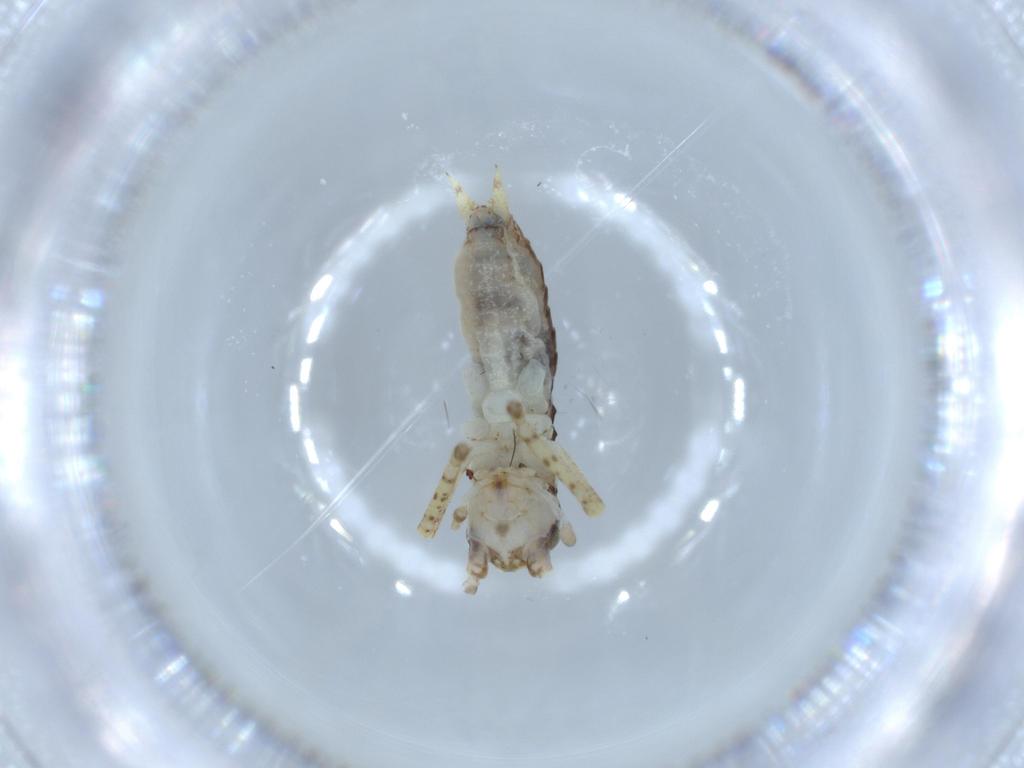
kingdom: Animalia
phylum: Arthropoda
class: Insecta
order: Orthoptera
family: Gryllidae
